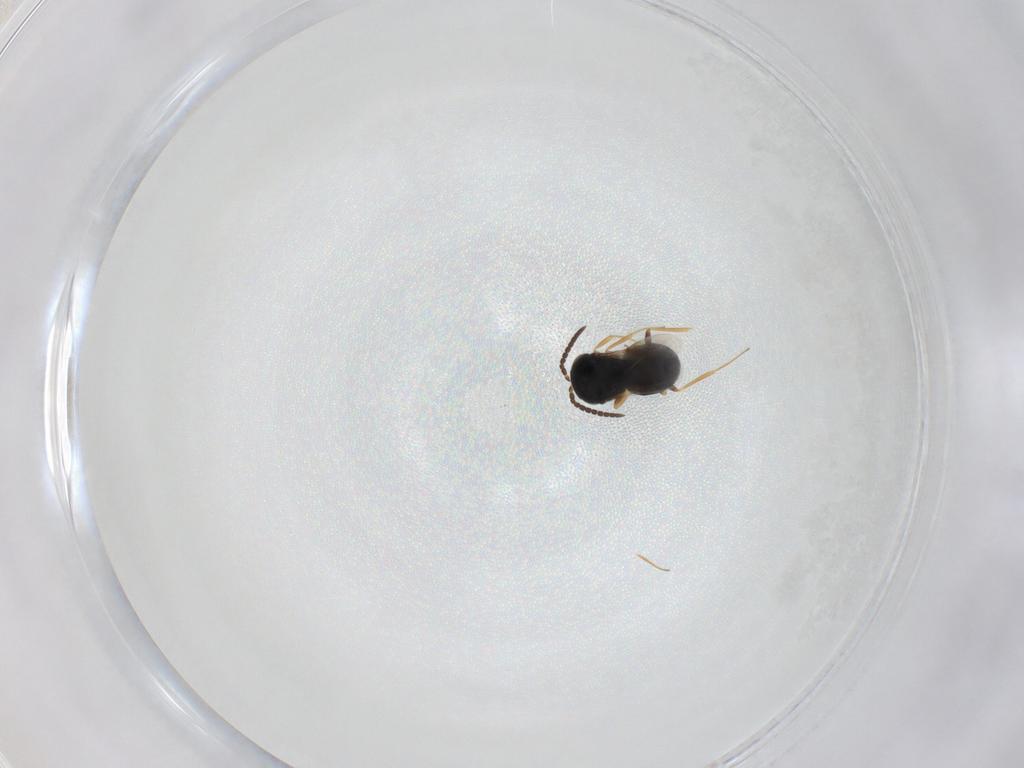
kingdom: Animalia
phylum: Arthropoda
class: Insecta
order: Hymenoptera
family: Scelionidae
